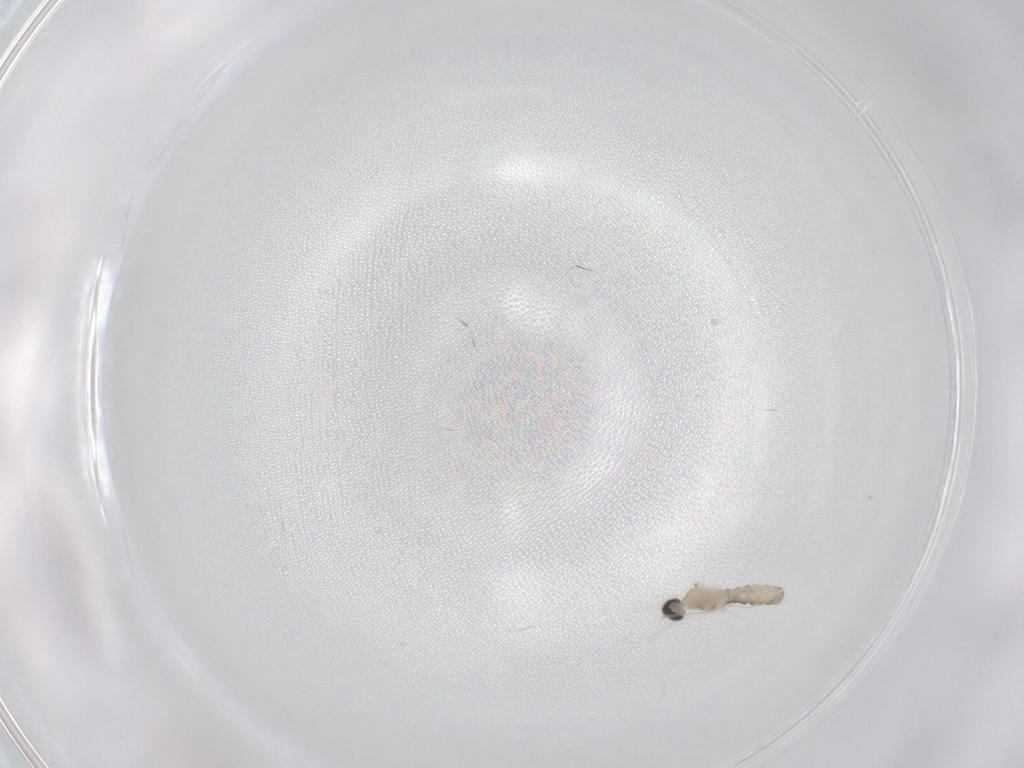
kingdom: Animalia
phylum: Arthropoda
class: Insecta
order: Diptera
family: Cecidomyiidae
